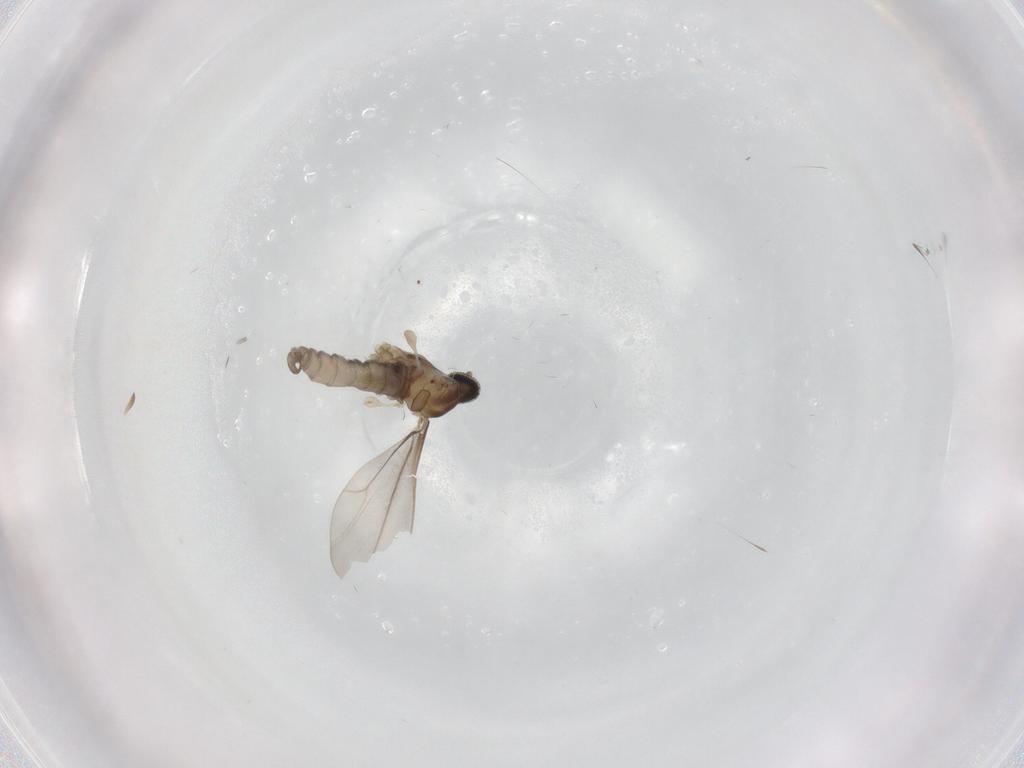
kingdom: Animalia
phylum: Arthropoda
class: Insecta
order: Diptera
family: Cecidomyiidae
